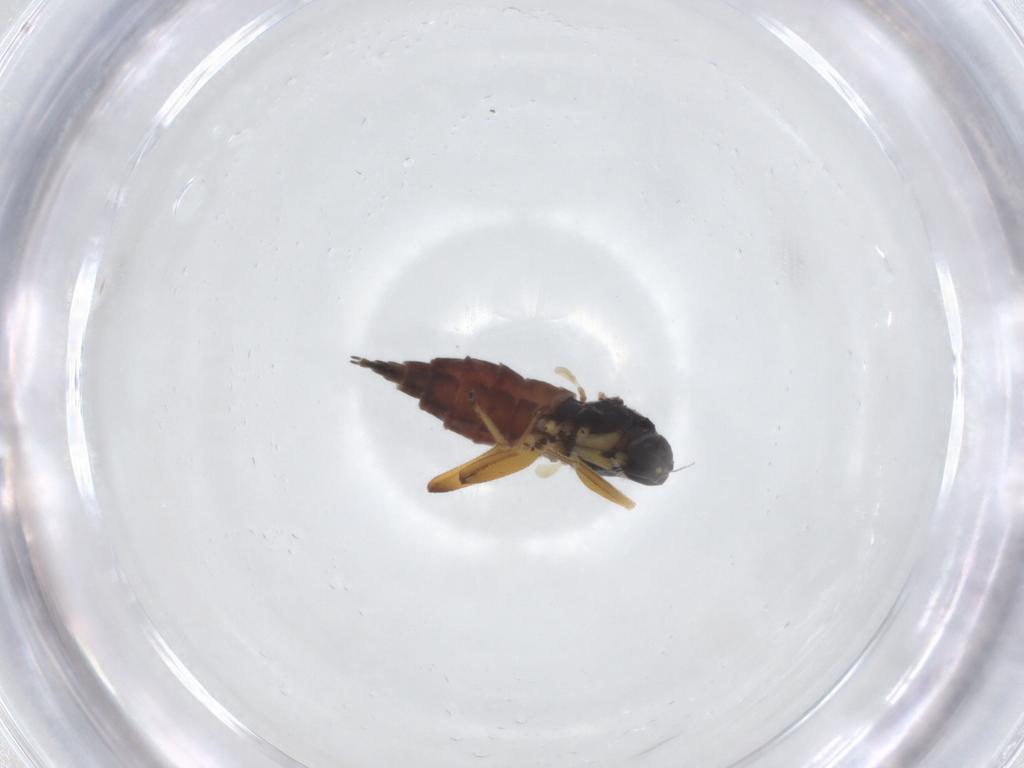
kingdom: Animalia
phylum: Arthropoda
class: Insecta
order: Diptera
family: Hybotidae
